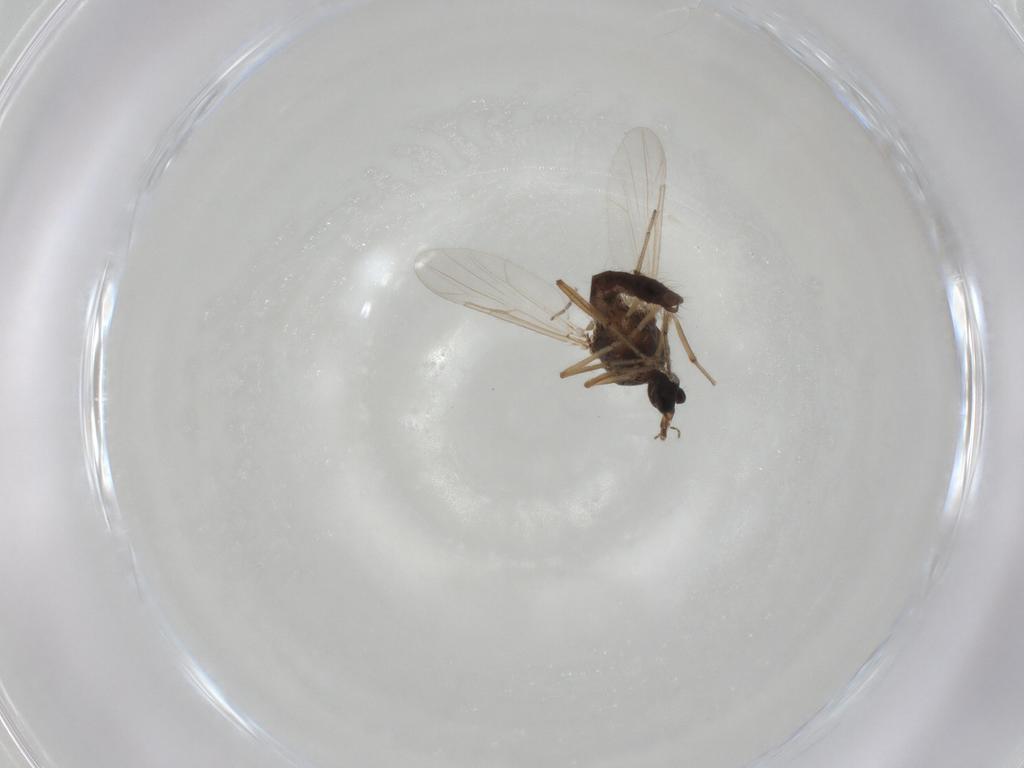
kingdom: Animalia
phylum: Arthropoda
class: Insecta
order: Diptera
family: Ceratopogonidae
